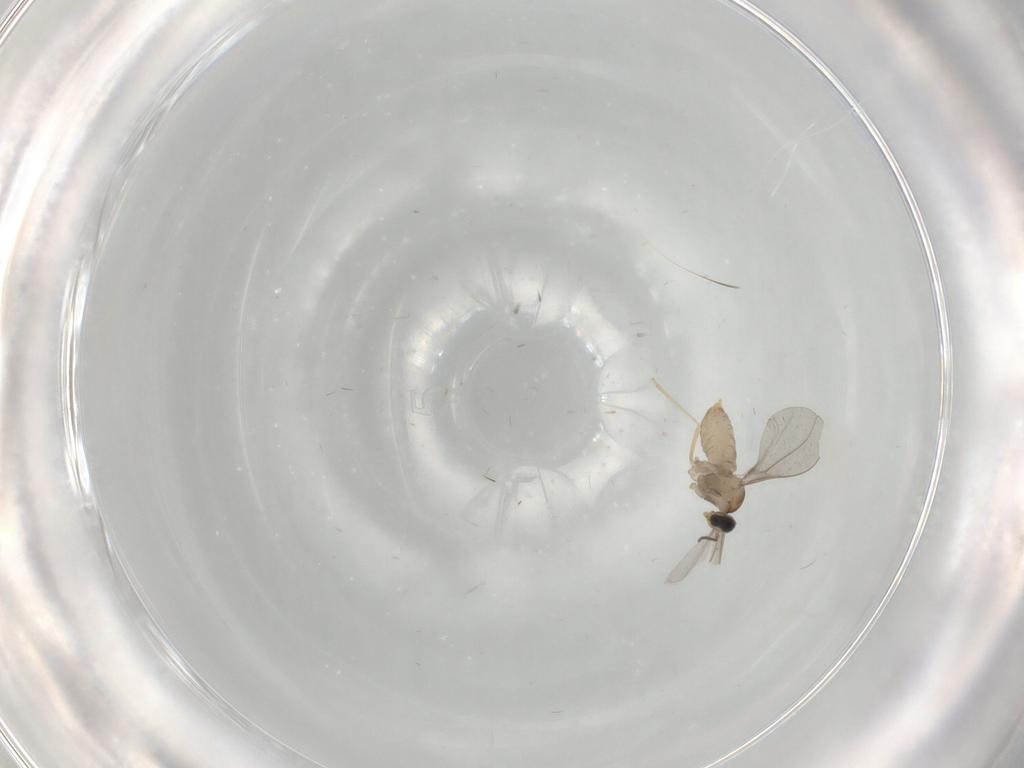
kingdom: Animalia
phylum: Arthropoda
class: Insecta
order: Diptera
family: Cecidomyiidae
